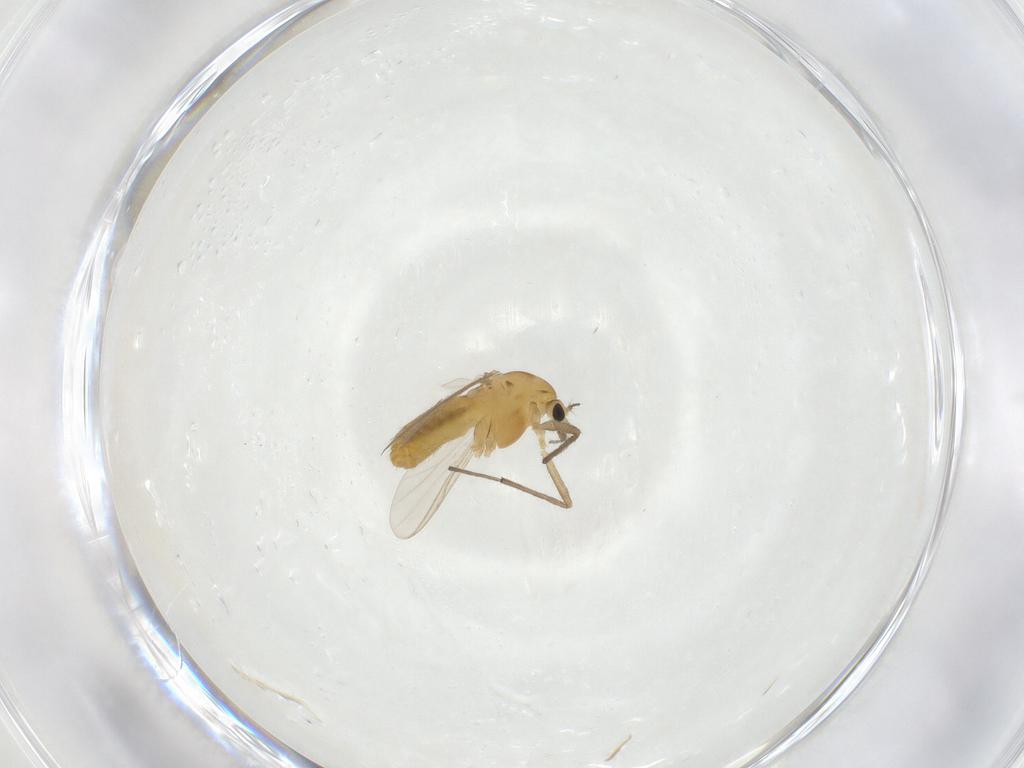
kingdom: Animalia
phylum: Arthropoda
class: Insecta
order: Diptera
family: Chironomidae
